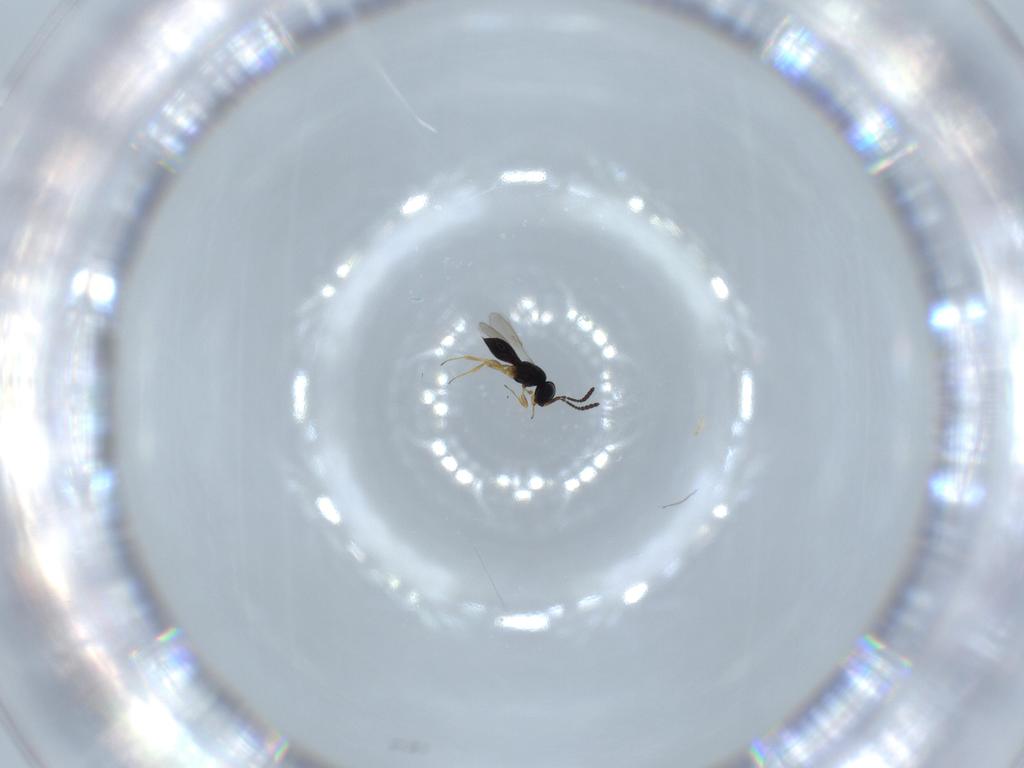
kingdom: Animalia
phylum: Arthropoda
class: Insecta
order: Hymenoptera
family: Scelionidae
